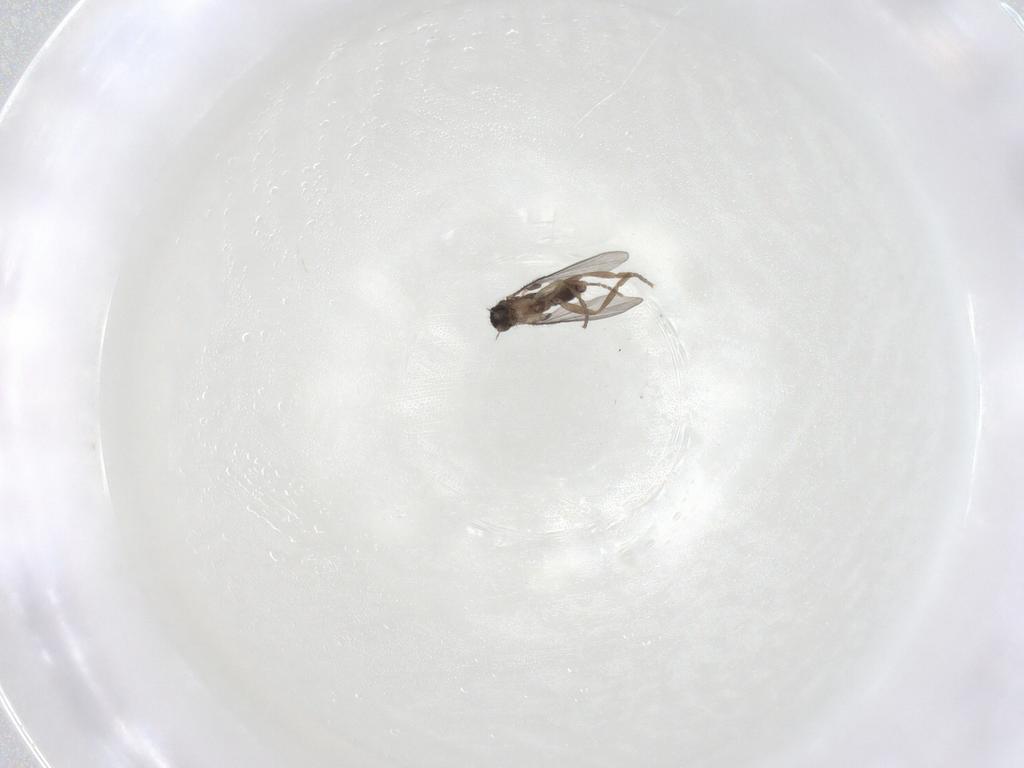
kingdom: Animalia
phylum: Arthropoda
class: Insecta
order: Diptera
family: Phoridae
